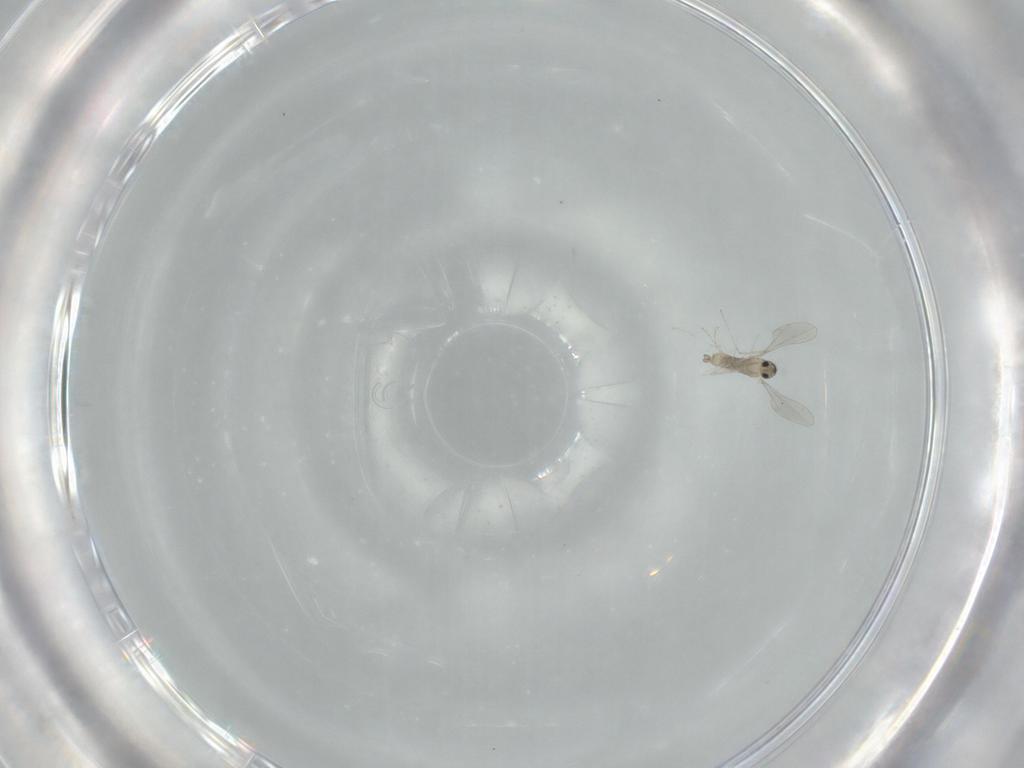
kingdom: Animalia
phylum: Arthropoda
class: Insecta
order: Diptera
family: Cecidomyiidae
